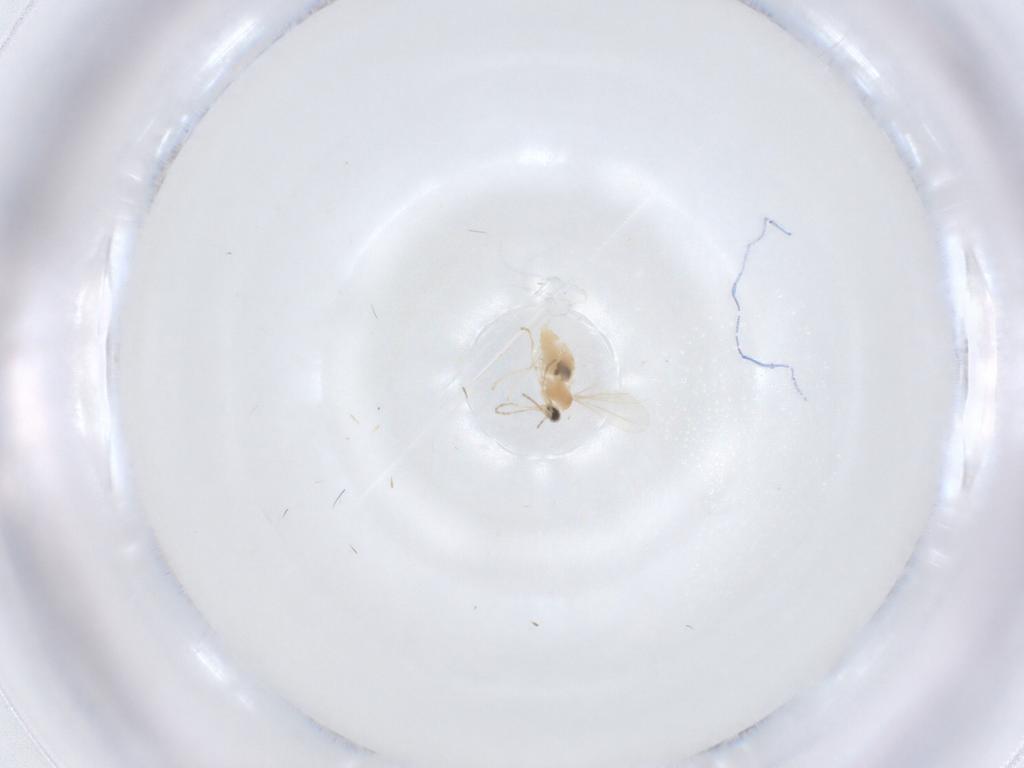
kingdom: Animalia
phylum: Arthropoda
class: Insecta
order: Diptera
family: Cecidomyiidae
